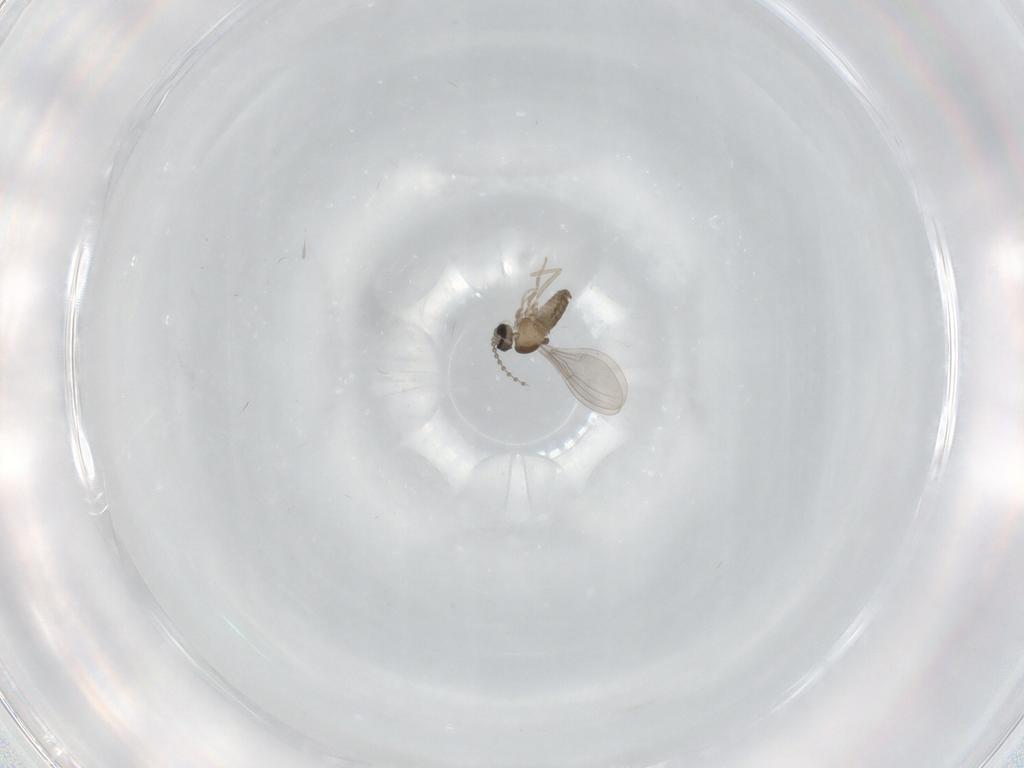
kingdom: Animalia
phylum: Arthropoda
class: Insecta
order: Diptera
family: Cecidomyiidae
